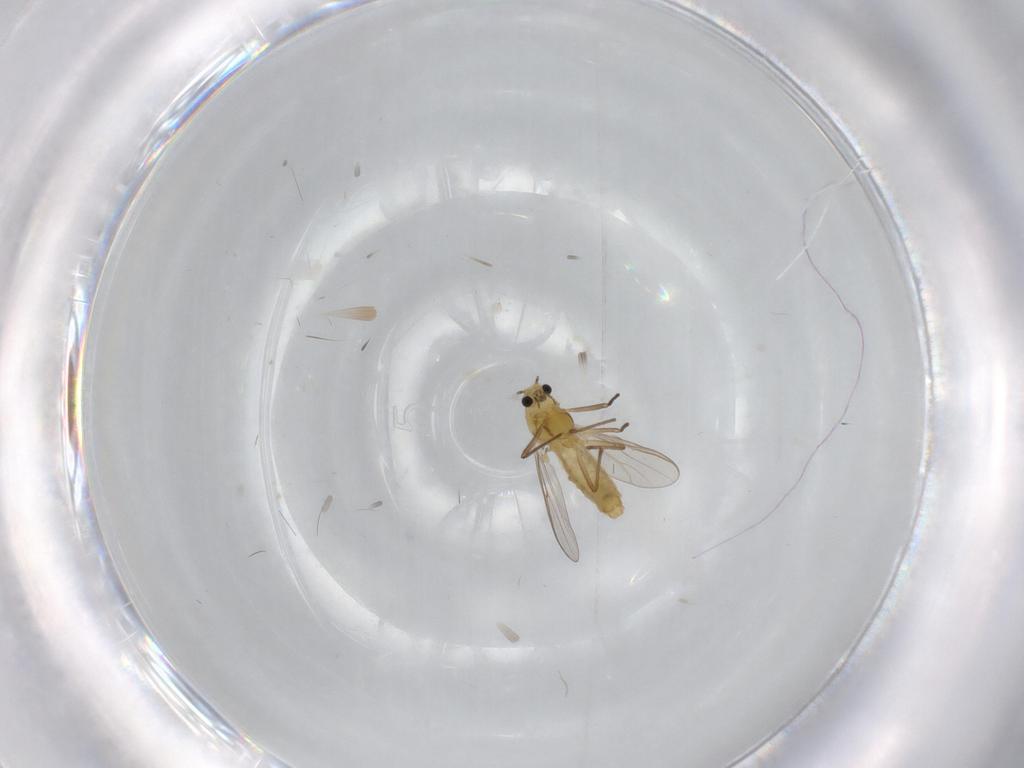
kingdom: Animalia
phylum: Arthropoda
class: Insecta
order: Diptera
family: Chironomidae
